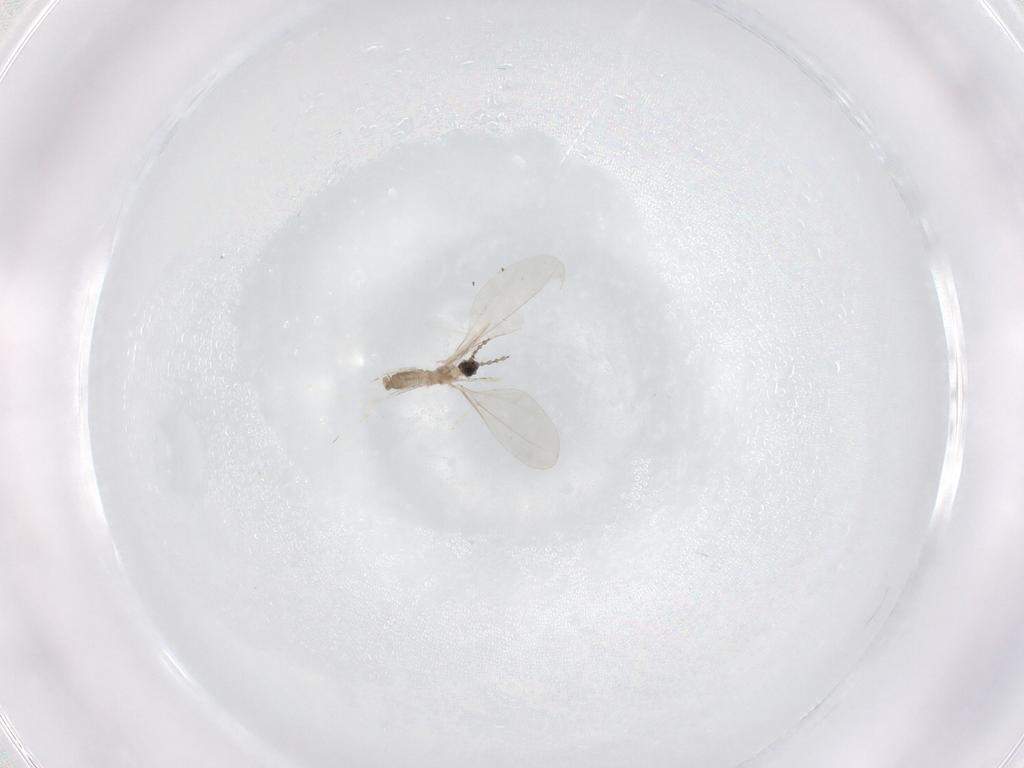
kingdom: Animalia
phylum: Arthropoda
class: Insecta
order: Diptera
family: Cecidomyiidae
